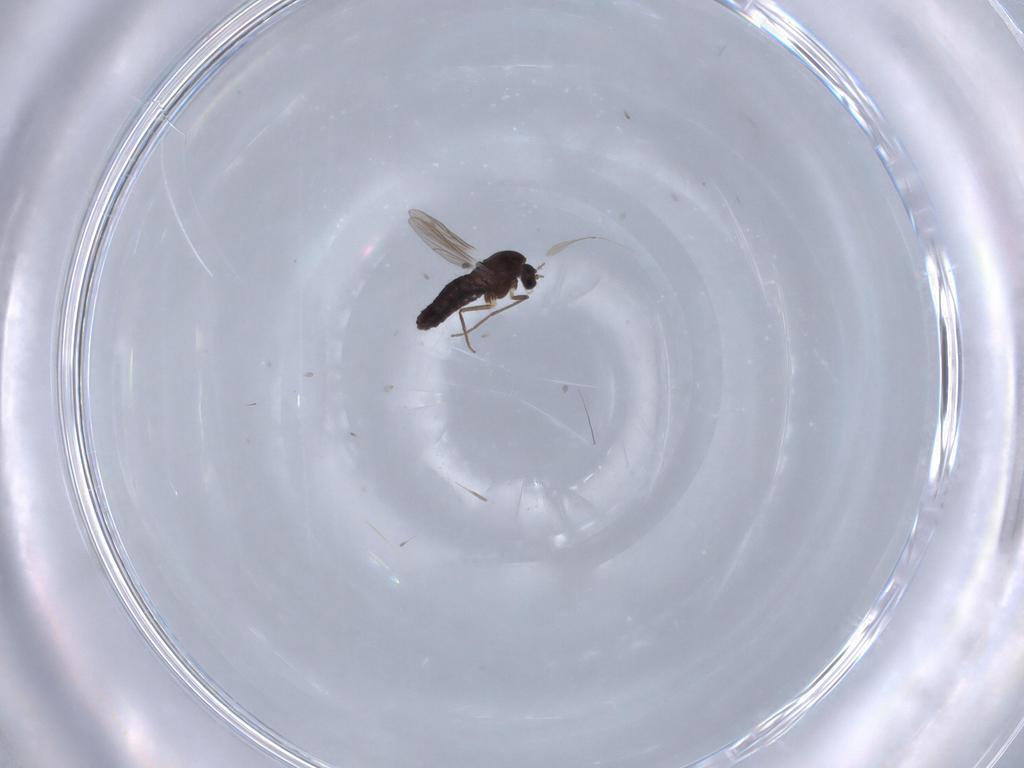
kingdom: Animalia
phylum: Arthropoda
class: Insecta
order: Diptera
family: Chironomidae
